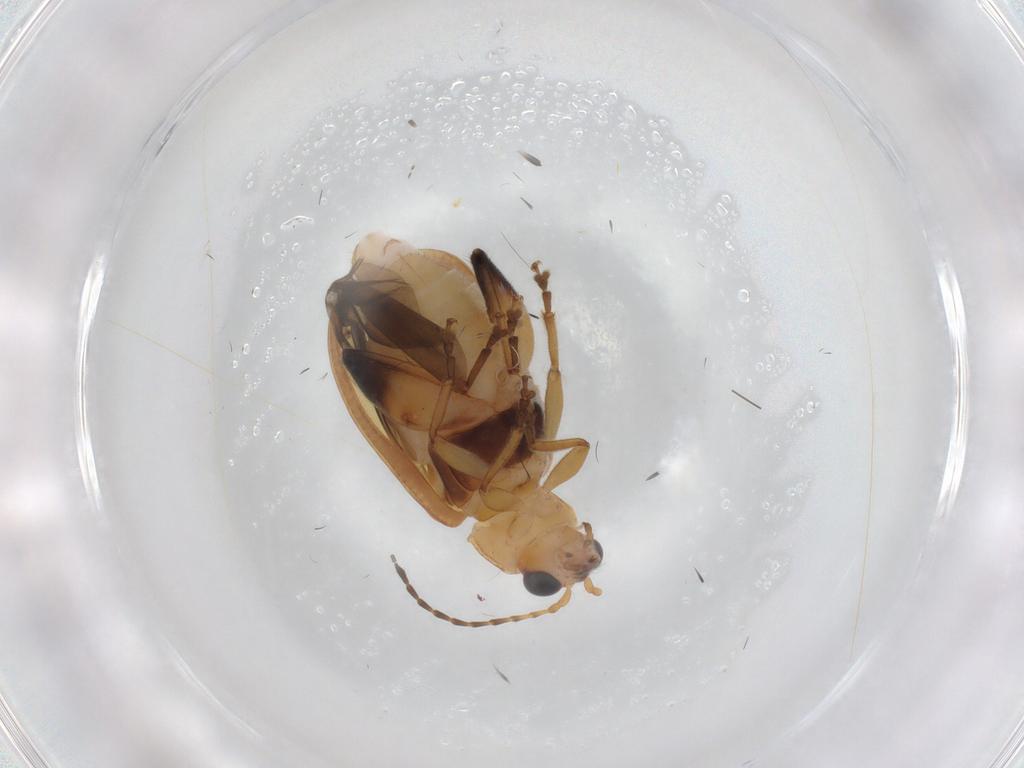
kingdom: Animalia
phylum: Arthropoda
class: Insecta
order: Coleoptera
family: Chrysomelidae
